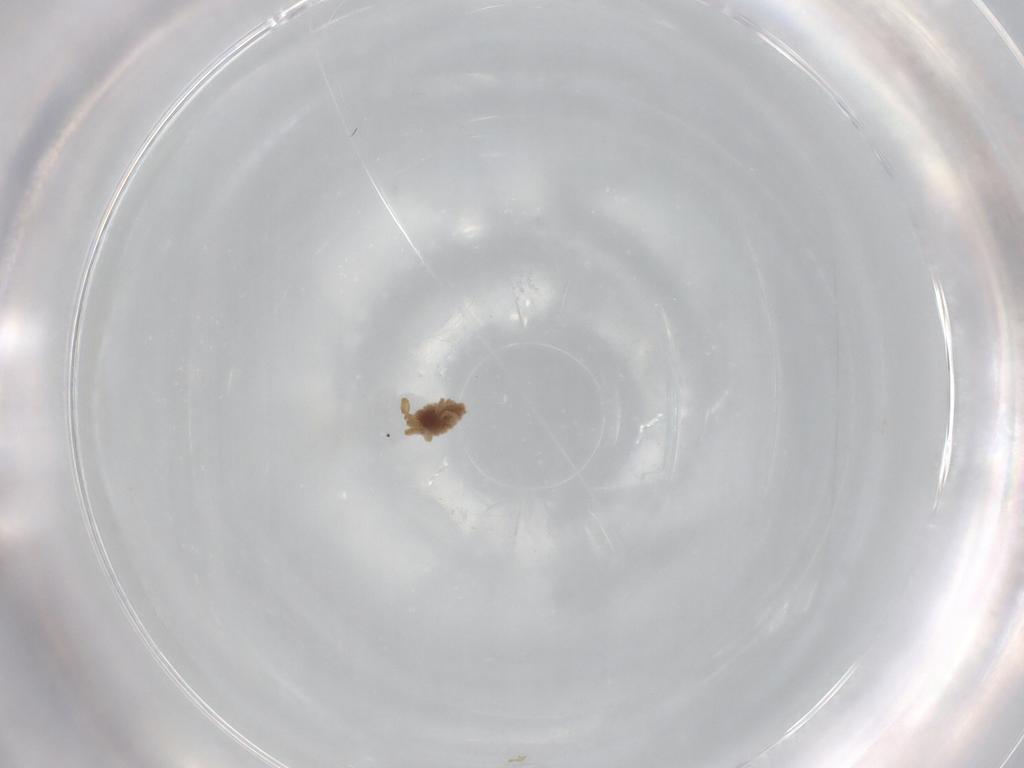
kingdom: Animalia
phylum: Arthropoda
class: Arachnida
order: Trombidiformes
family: Trombidiidae
